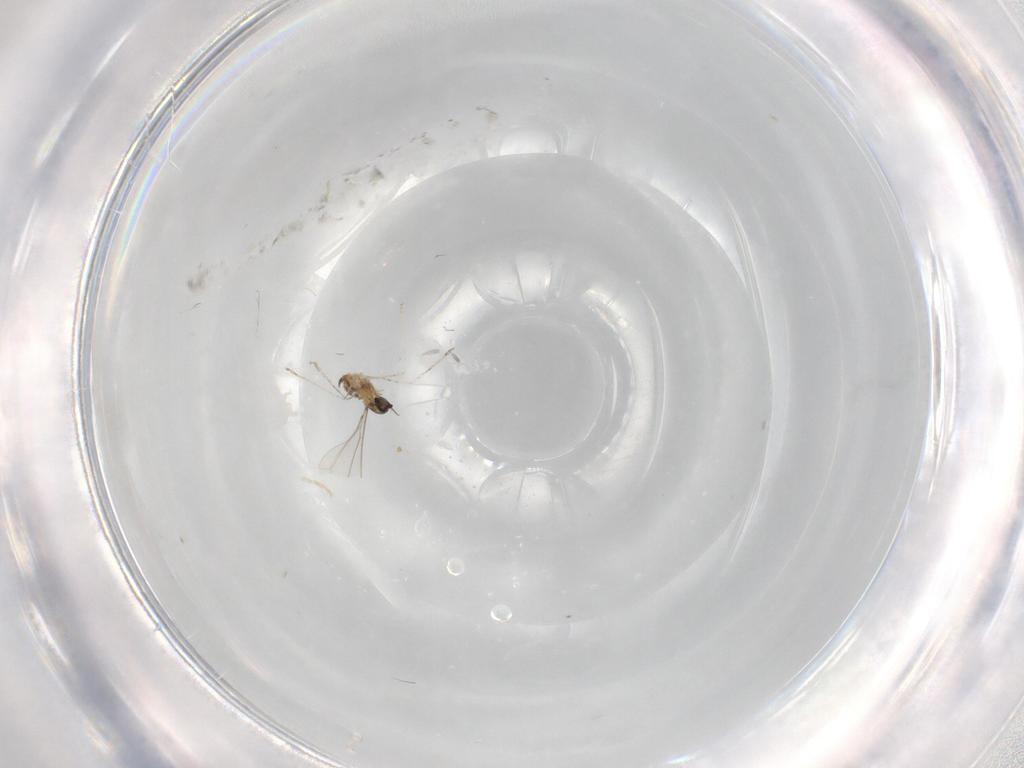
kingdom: Animalia
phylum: Arthropoda
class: Insecta
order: Diptera
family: Cecidomyiidae
